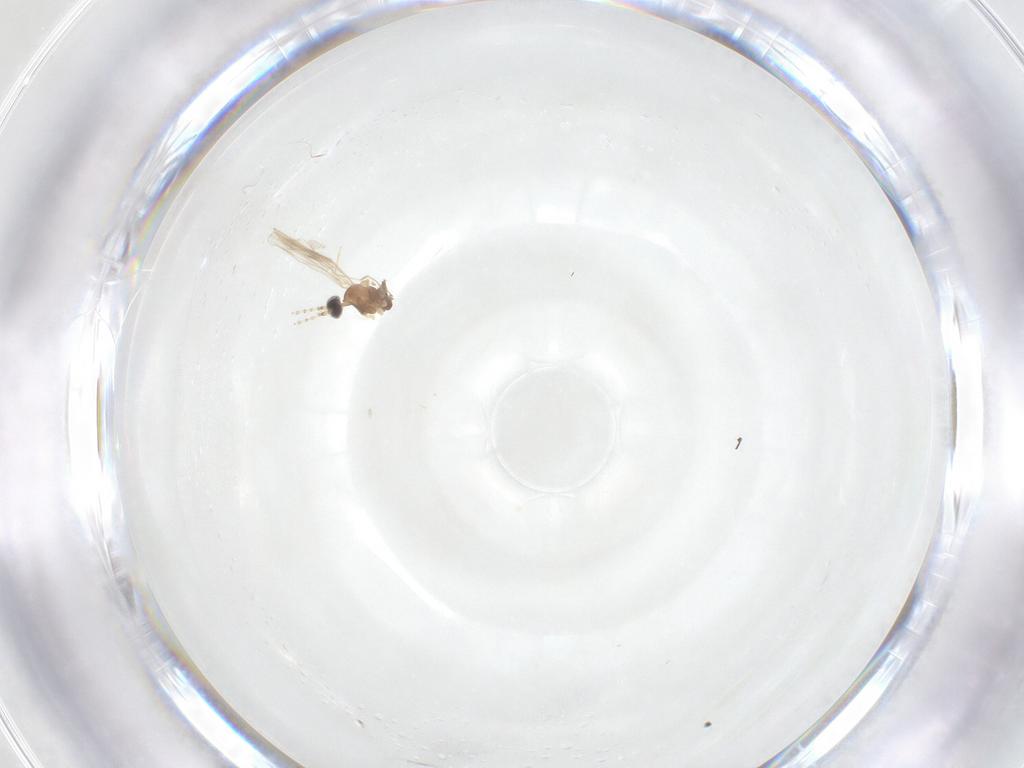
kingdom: Animalia
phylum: Arthropoda
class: Insecta
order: Diptera
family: Cecidomyiidae
